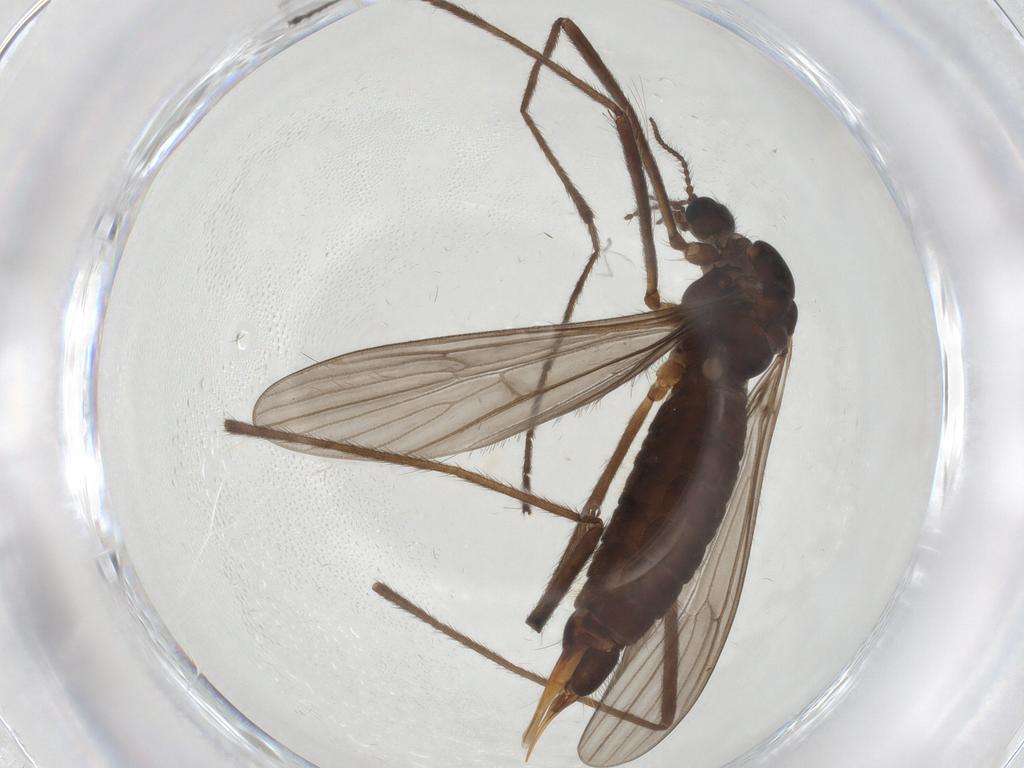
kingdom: Animalia
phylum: Arthropoda
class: Insecta
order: Diptera
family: Limoniidae
